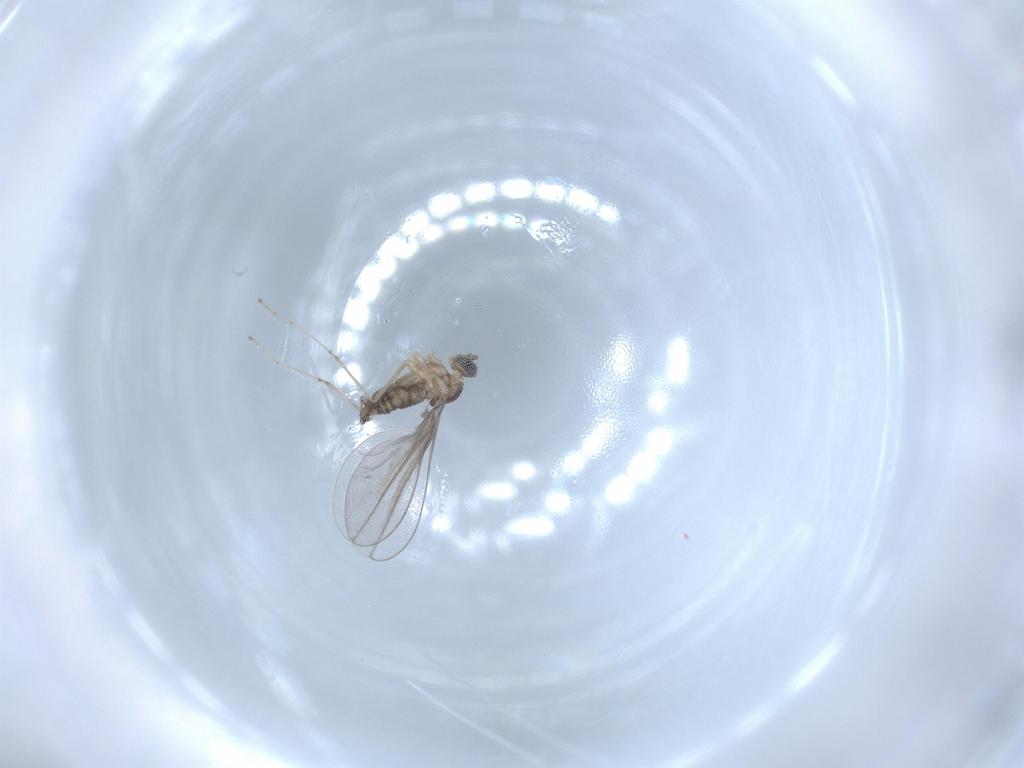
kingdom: Animalia
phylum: Arthropoda
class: Insecta
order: Diptera
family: Cecidomyiidae
